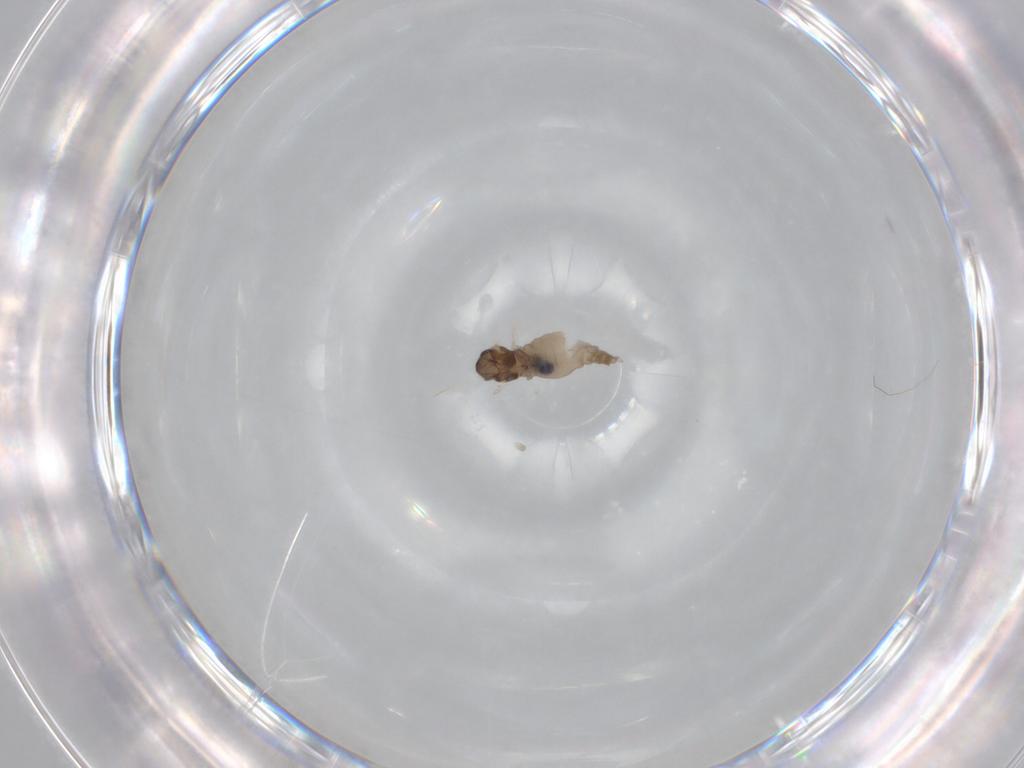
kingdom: Animalia
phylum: Arthropoda
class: Insecta
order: Diptera
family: Cecidomyiidae
